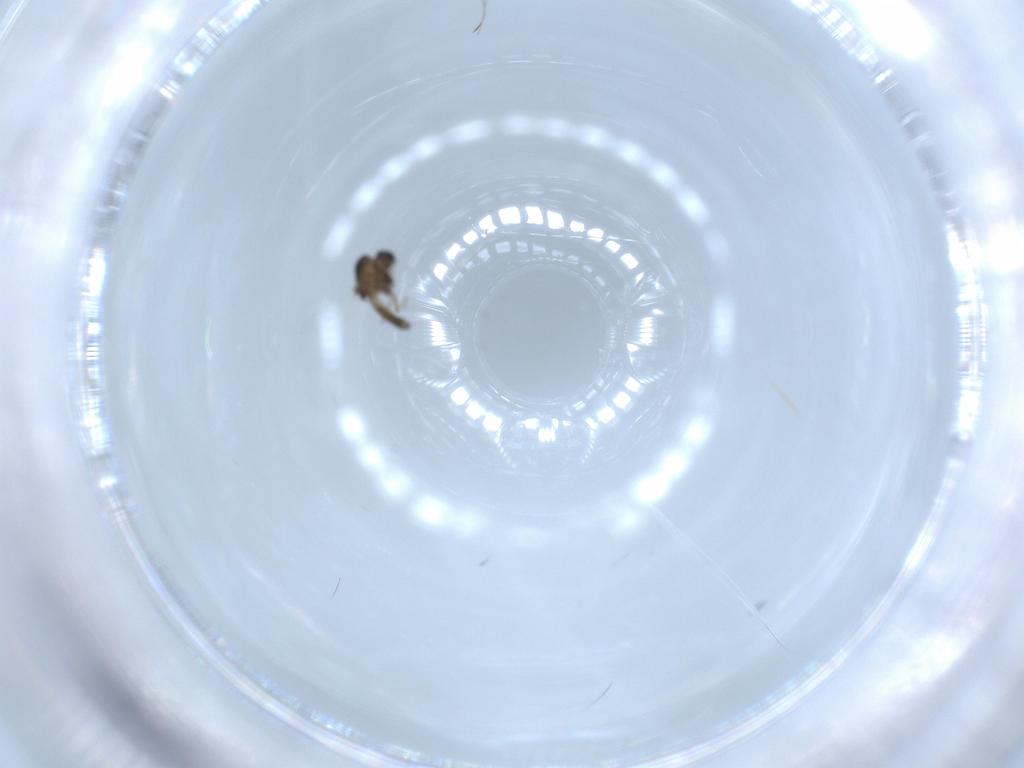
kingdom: Animalia
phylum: Arthropoda
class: Insecta
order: Diptera
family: Chironomidae
